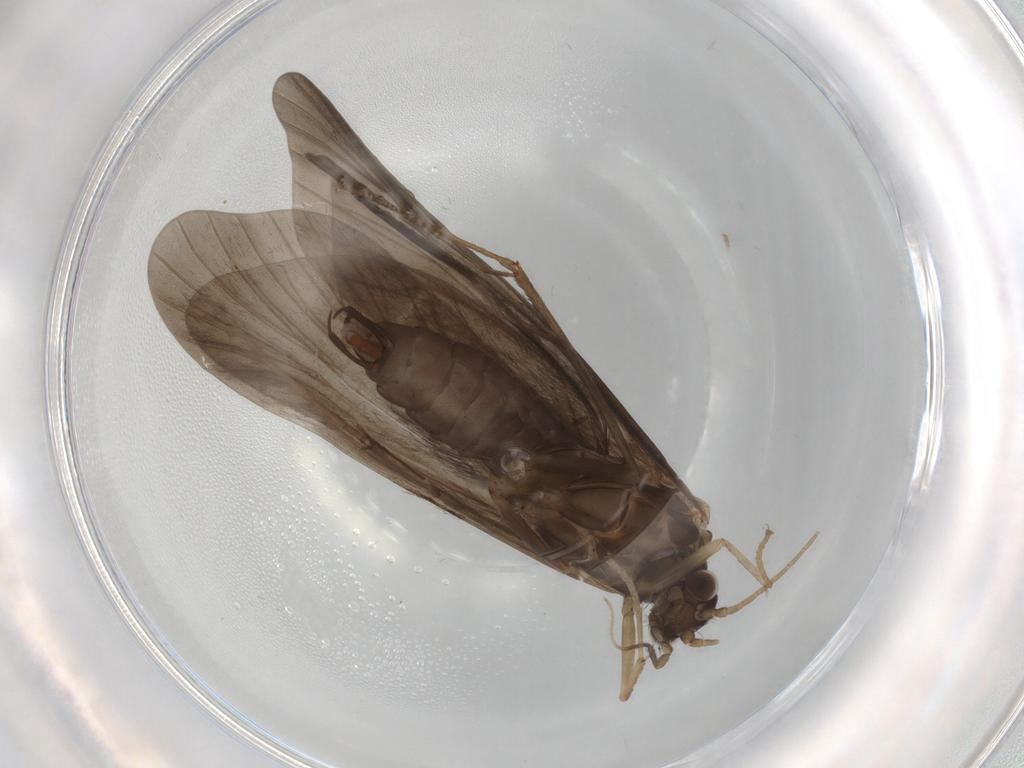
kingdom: Animalia
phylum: Arthropoda
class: Insecta
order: Trichoptera
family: Hydropsychidae
